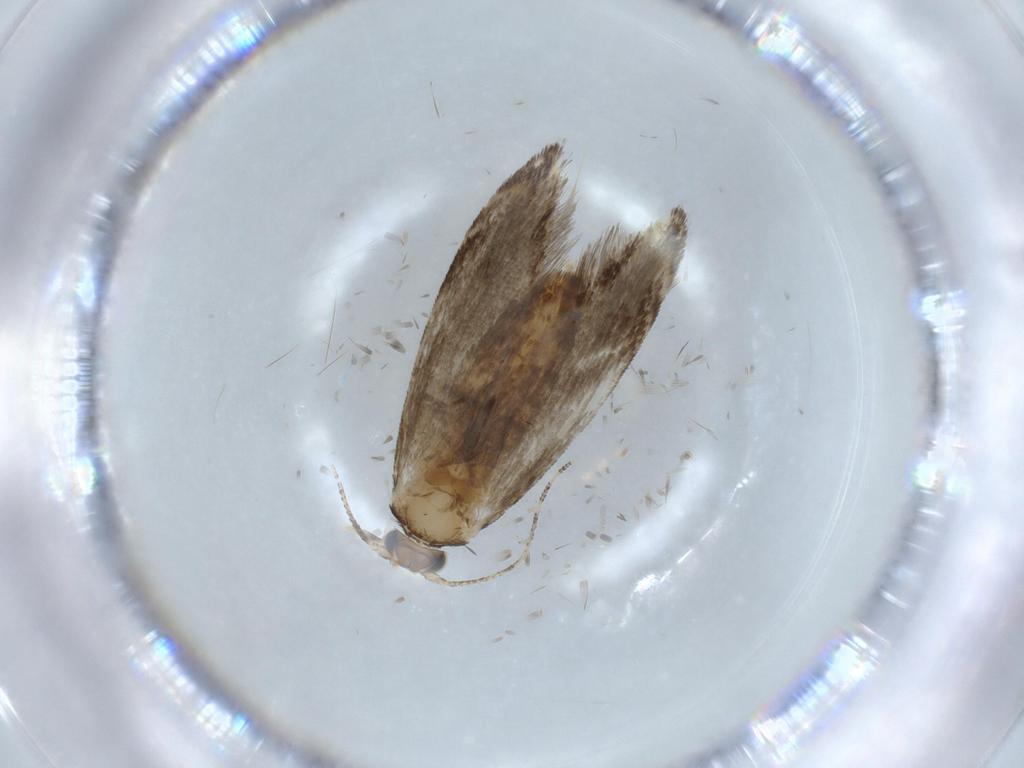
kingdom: Animalia
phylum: Arthropoda
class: Insecta
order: Lepidoptera
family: Tineidae
